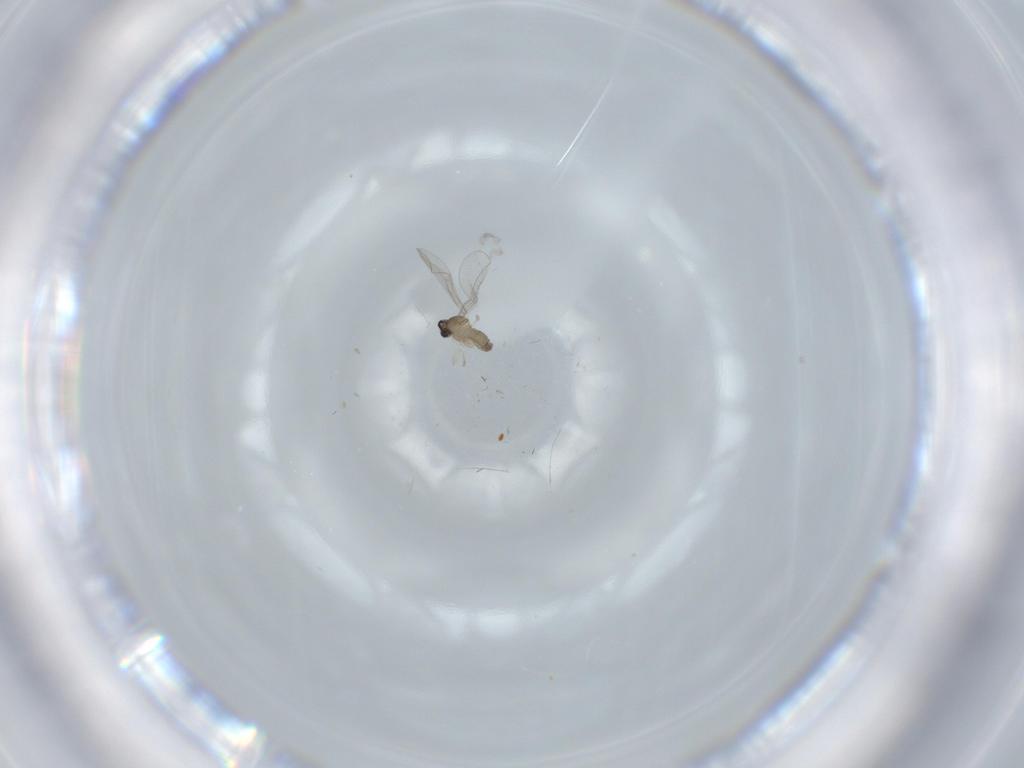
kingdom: Animalia
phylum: Arthropoda
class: Insecta
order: Diptera
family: Cecidomyiidae
